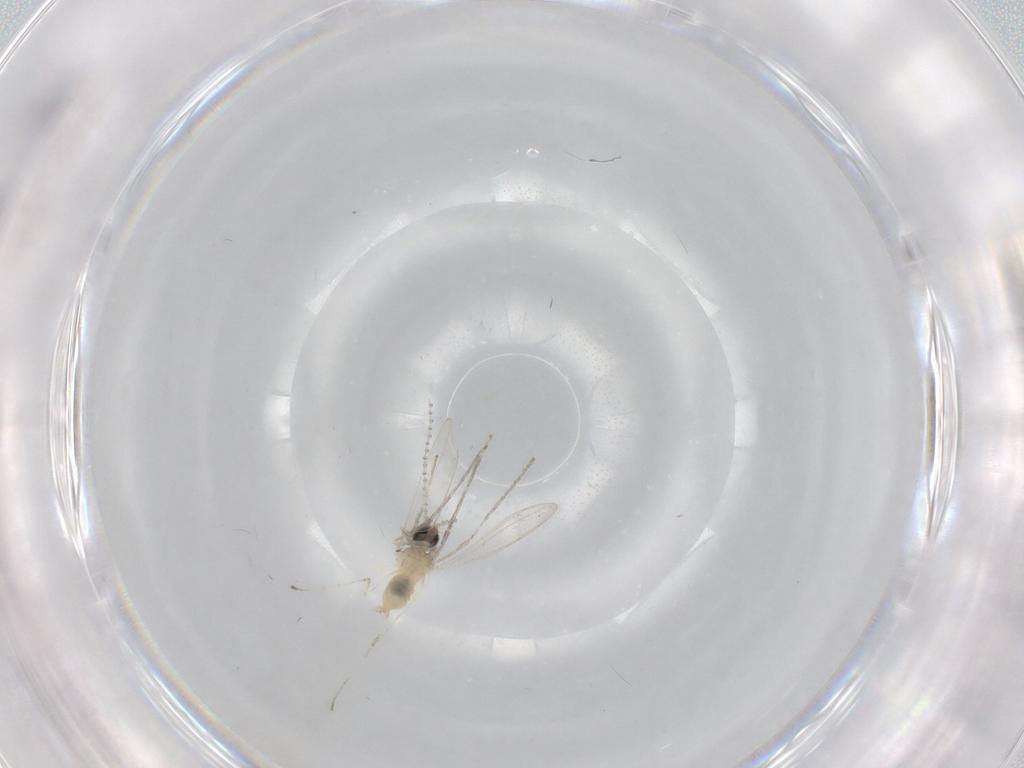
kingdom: Animalia
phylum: Arthropoda
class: Insecta
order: Diptera
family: Cecidomyiidae
